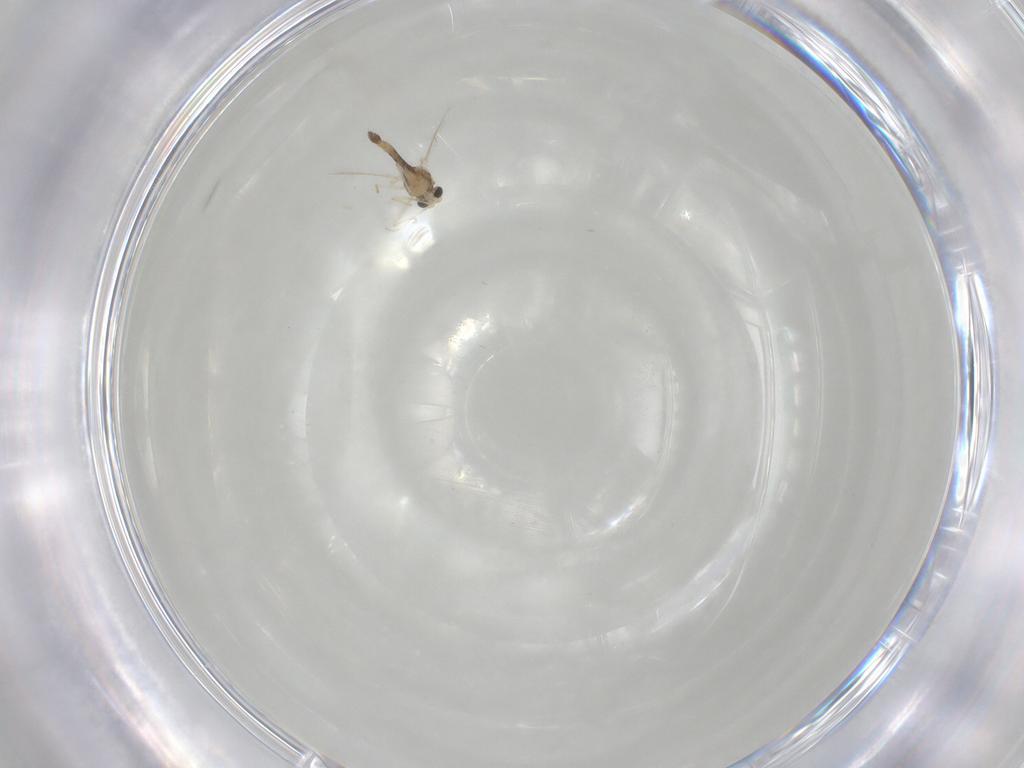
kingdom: Animalia
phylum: Arthropoda
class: Insecta
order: Diptera
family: Chironomidae
